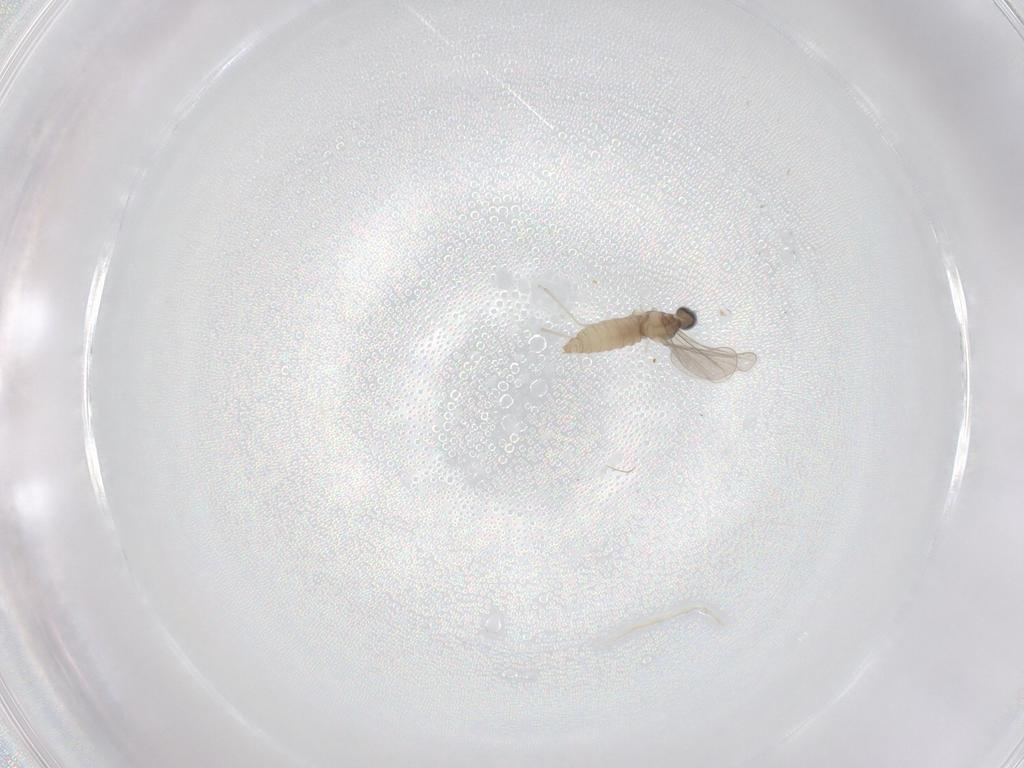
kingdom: Animalia
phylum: Arthropoda
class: Insecta
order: Diptera
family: Cecidomyiidae
